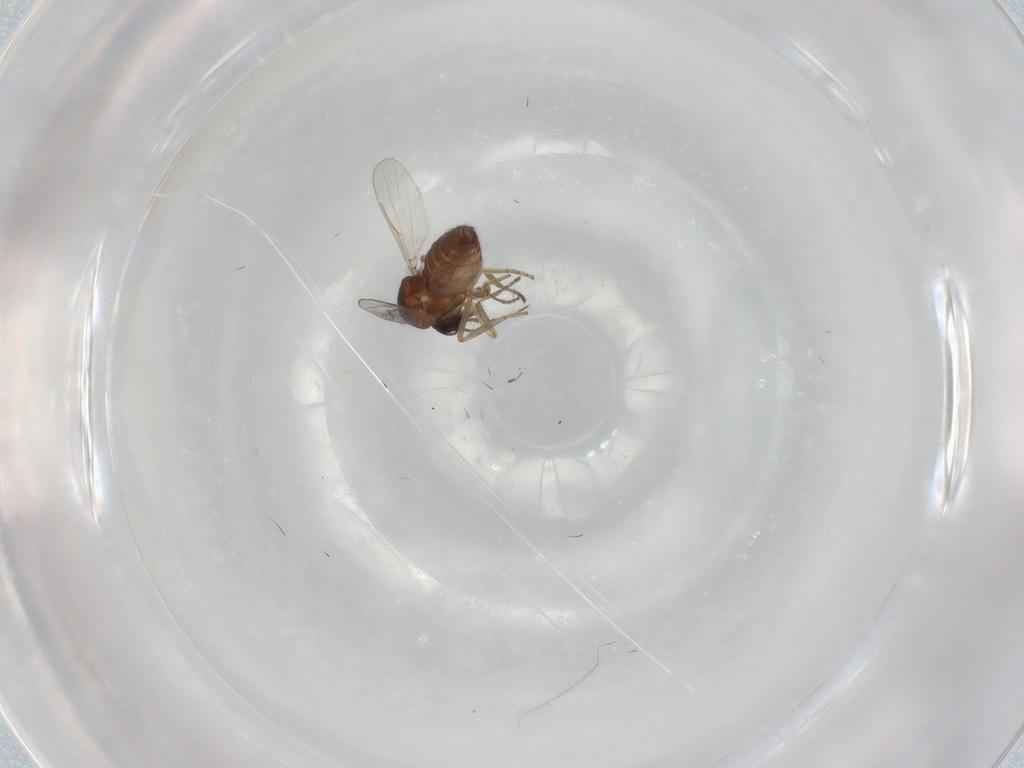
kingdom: Animalia
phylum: Arthropoda
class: Insecta
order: Diptera
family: Ceratopogonidae
